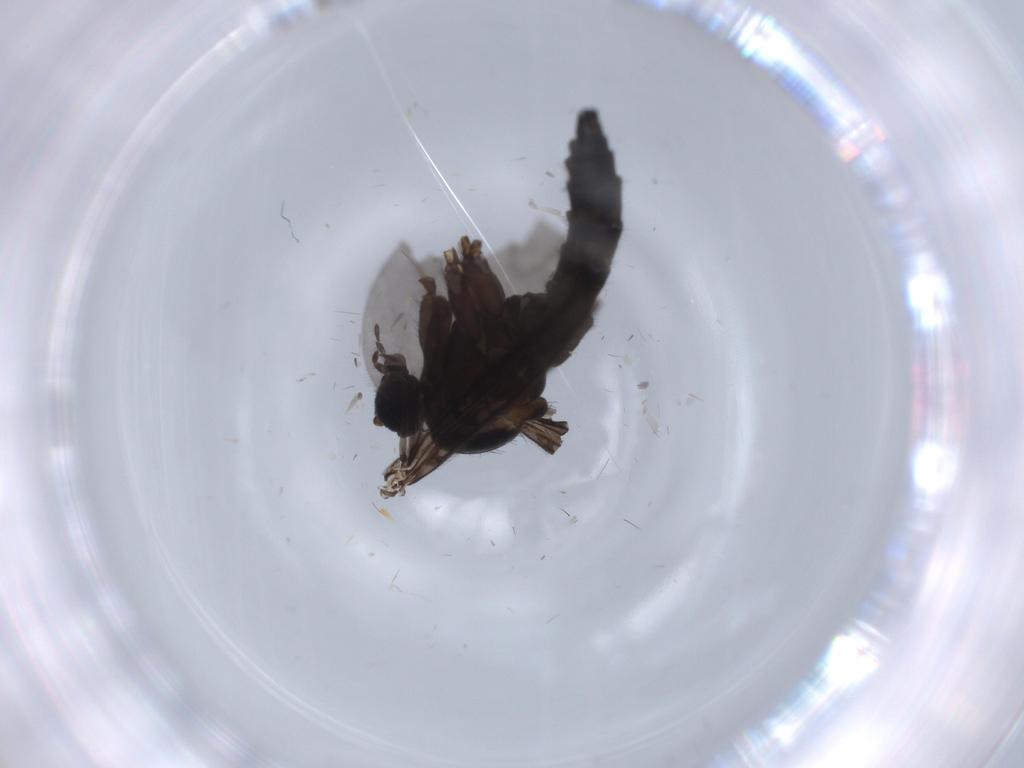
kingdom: Animalia
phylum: Arthropoda
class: Insecta
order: Diptera
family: Sciaridae
